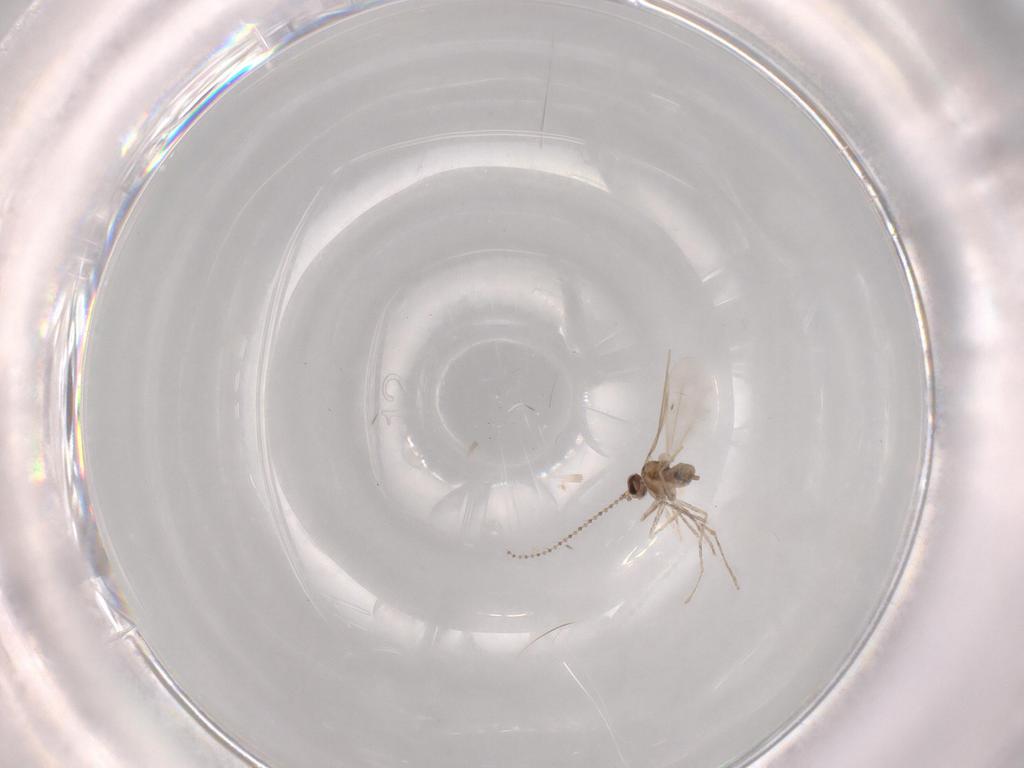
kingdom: Animalia
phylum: Arthropoda
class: Insecta
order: Diptera
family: Cecidomyiidae
